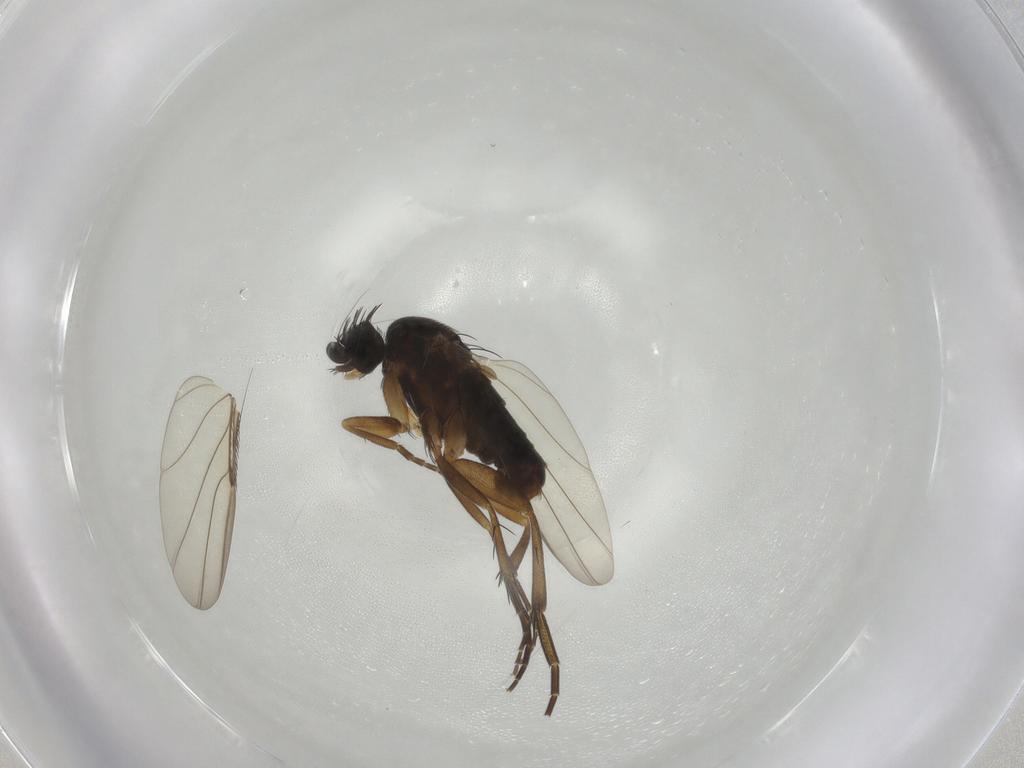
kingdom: Animalia
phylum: Arthropoda
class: Insecta
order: Diptera
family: Phoridae
